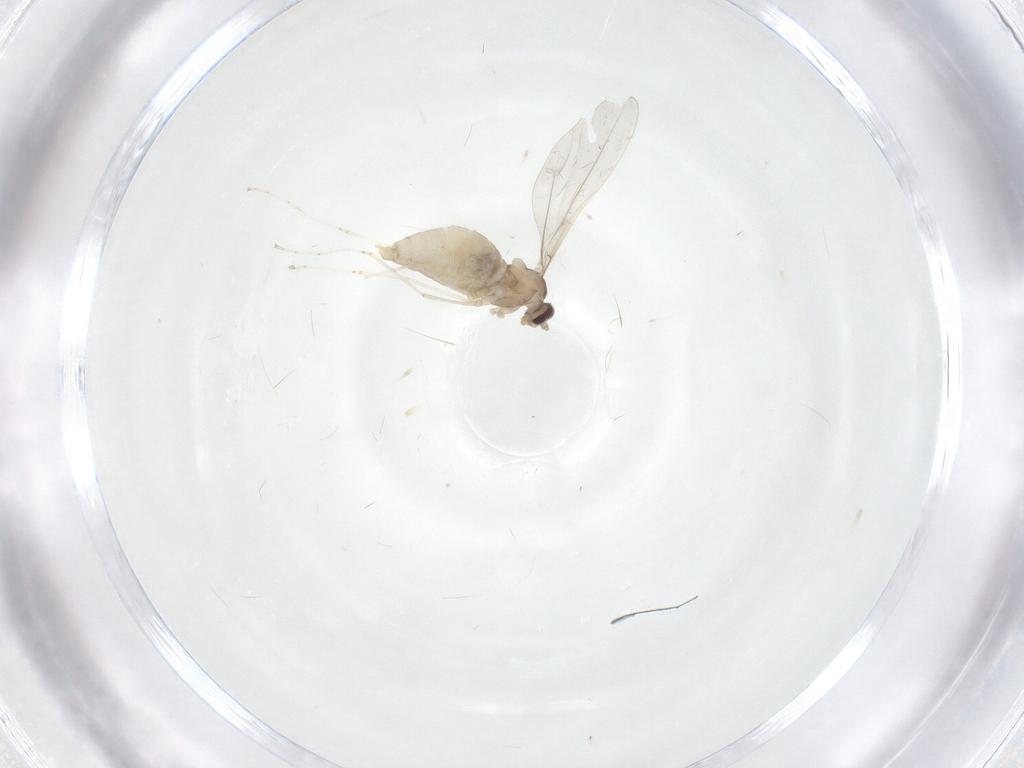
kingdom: Animalia
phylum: Arthropoda
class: Insecta
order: Diptera
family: Cecidomyiidae
